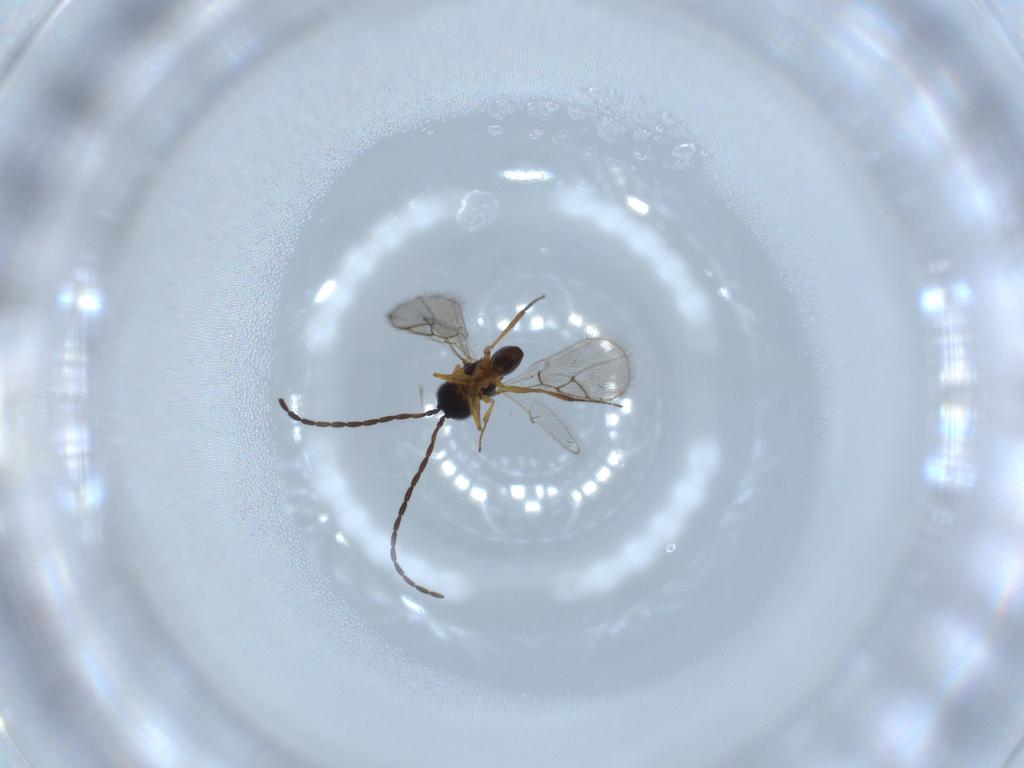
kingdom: Animalia
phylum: Arthropoda
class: Insecta
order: Hymenoptera
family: Figitidae
